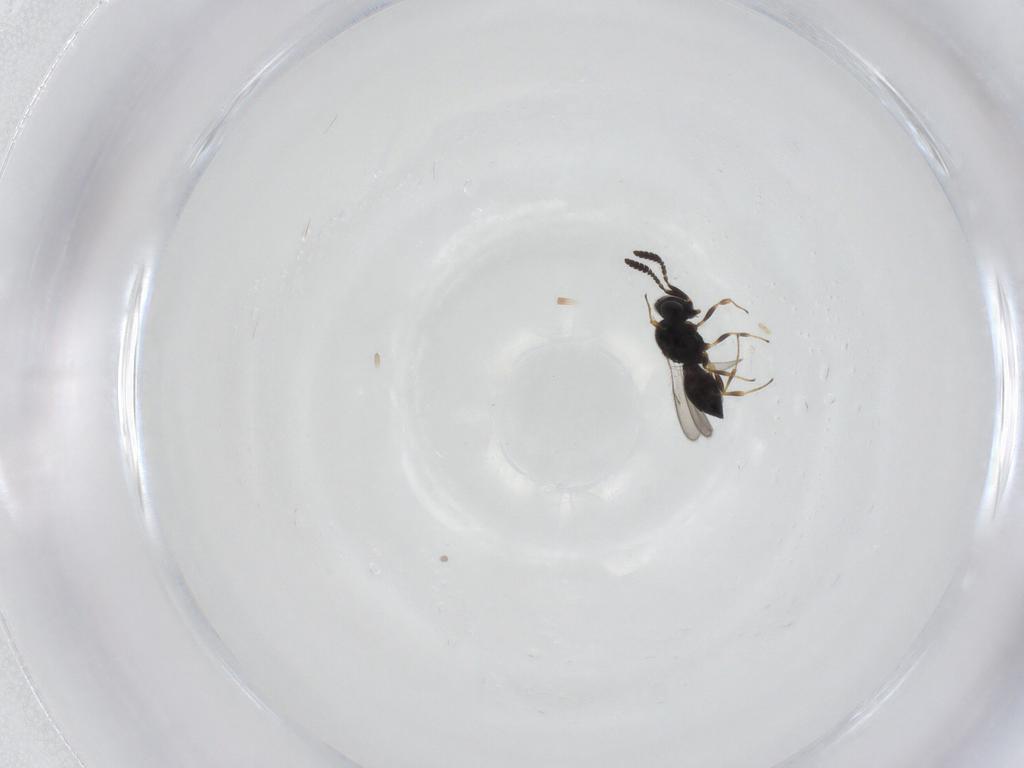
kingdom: Animalia
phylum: Arthropoda
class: Insecta
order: Hymenoptera
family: Scelionidae
